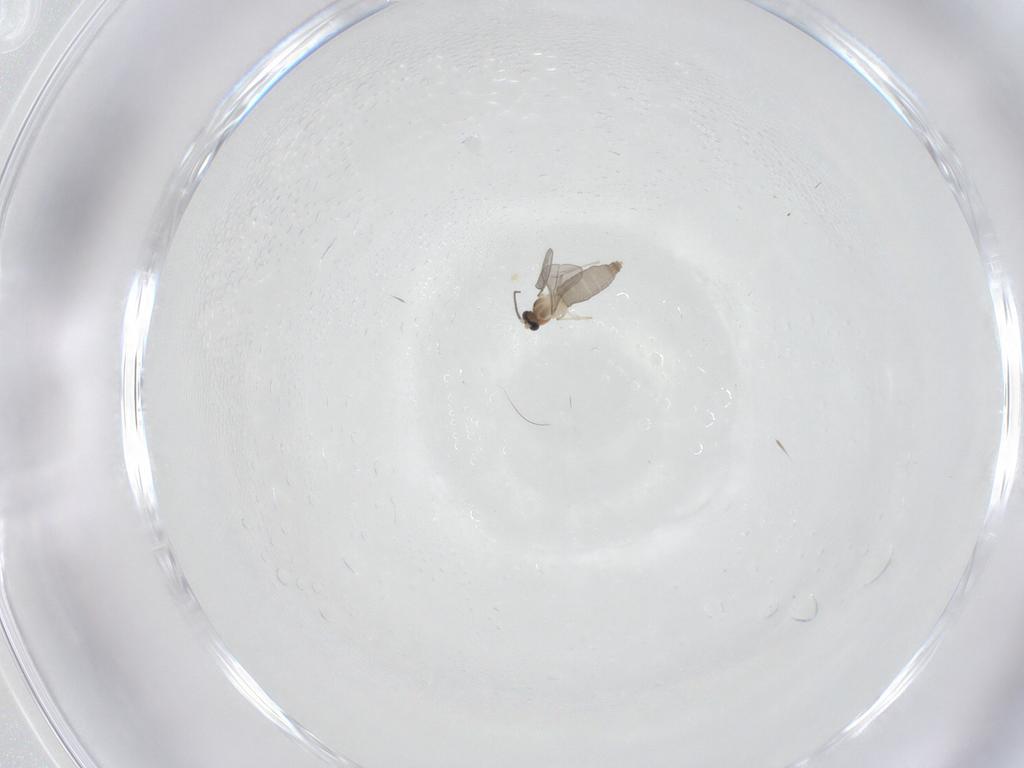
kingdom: Animalia
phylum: Arthropoda
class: Insecta
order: Diptera
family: Cecidomyiidae
